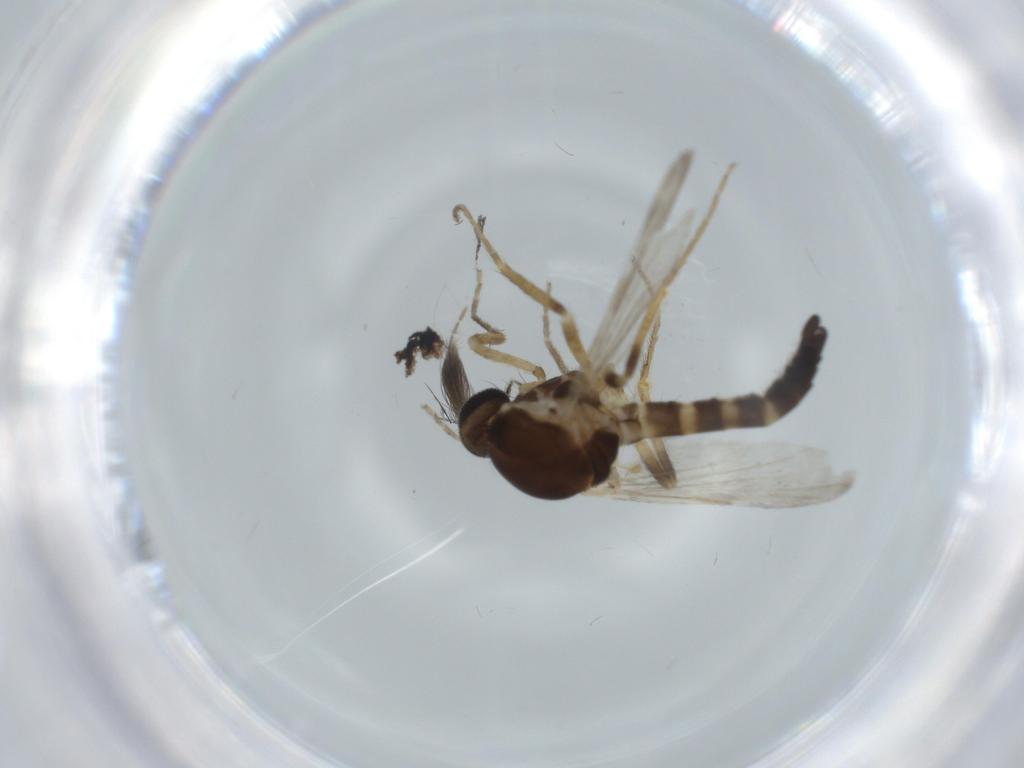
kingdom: Animalia
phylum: Arthropoda
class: Insecta
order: Diptera
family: Ceratopogonidae
